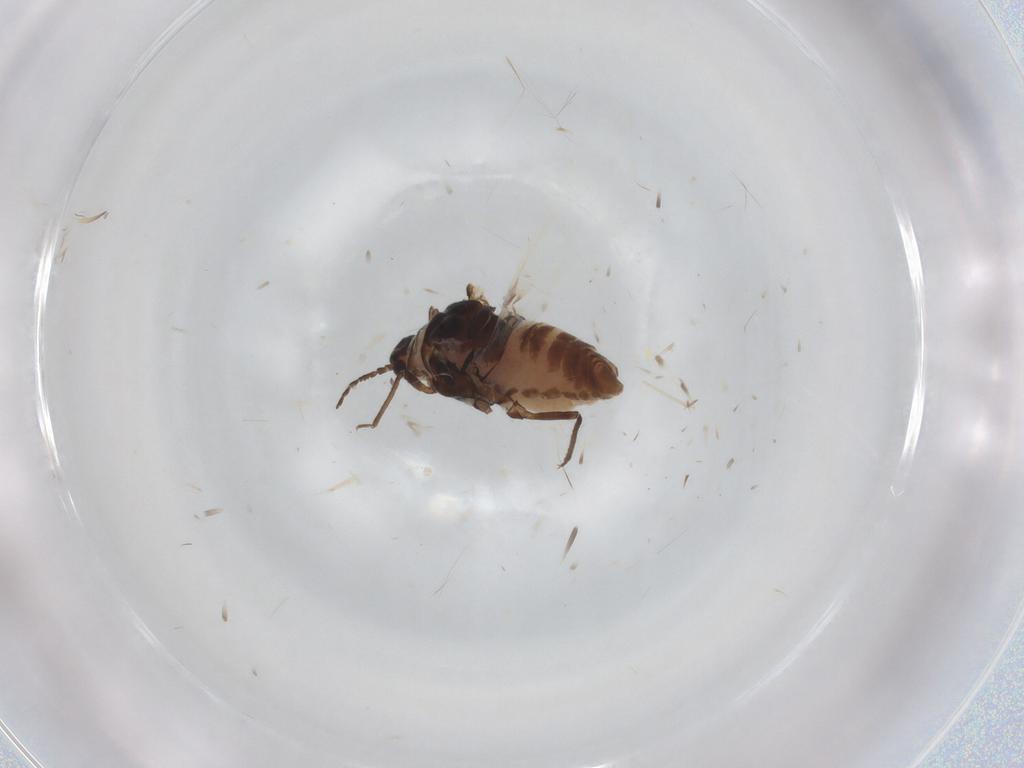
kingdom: Animalia
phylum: Arthropoda
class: Insecta
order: Hemiptera
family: Aphididae
